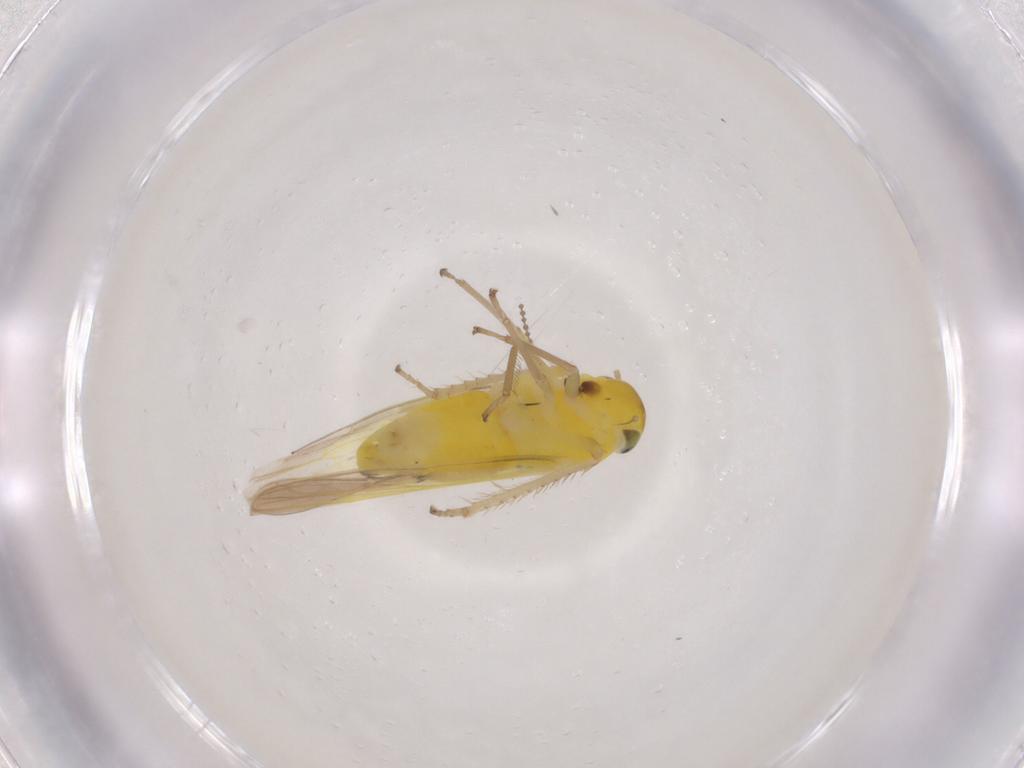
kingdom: Animalia
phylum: Arthropoda
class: Insecta
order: Hemiptera
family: Cicadellidae
